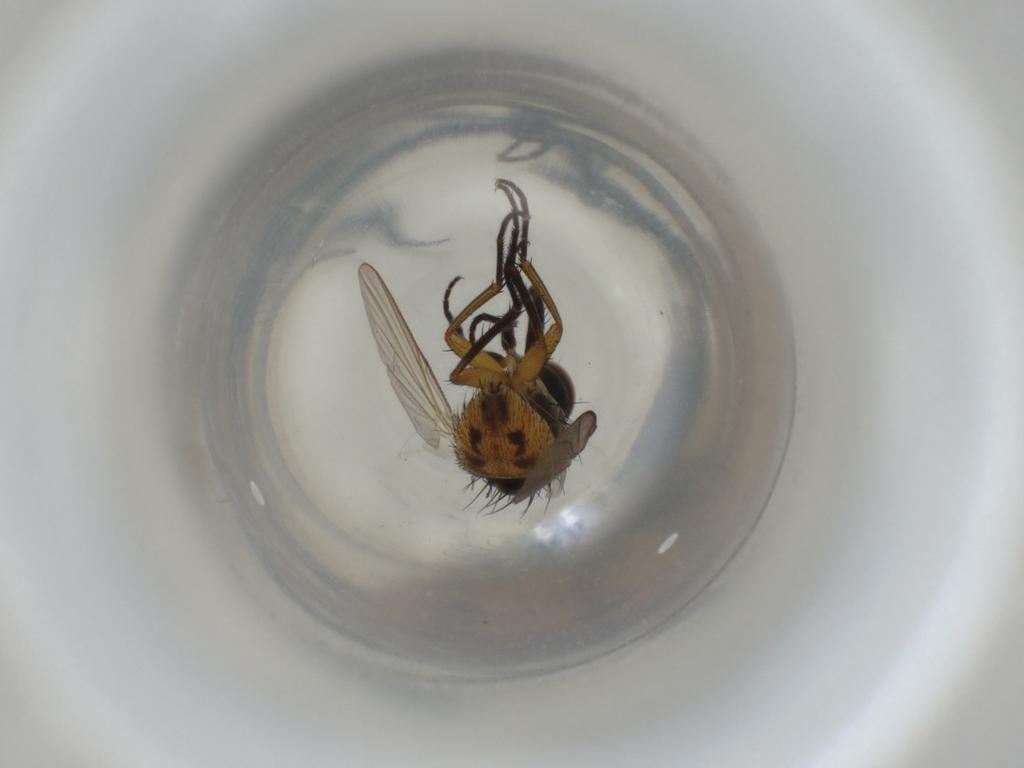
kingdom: Animalia
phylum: Arthropoda
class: Insecta
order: Diptera
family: Muscidae
